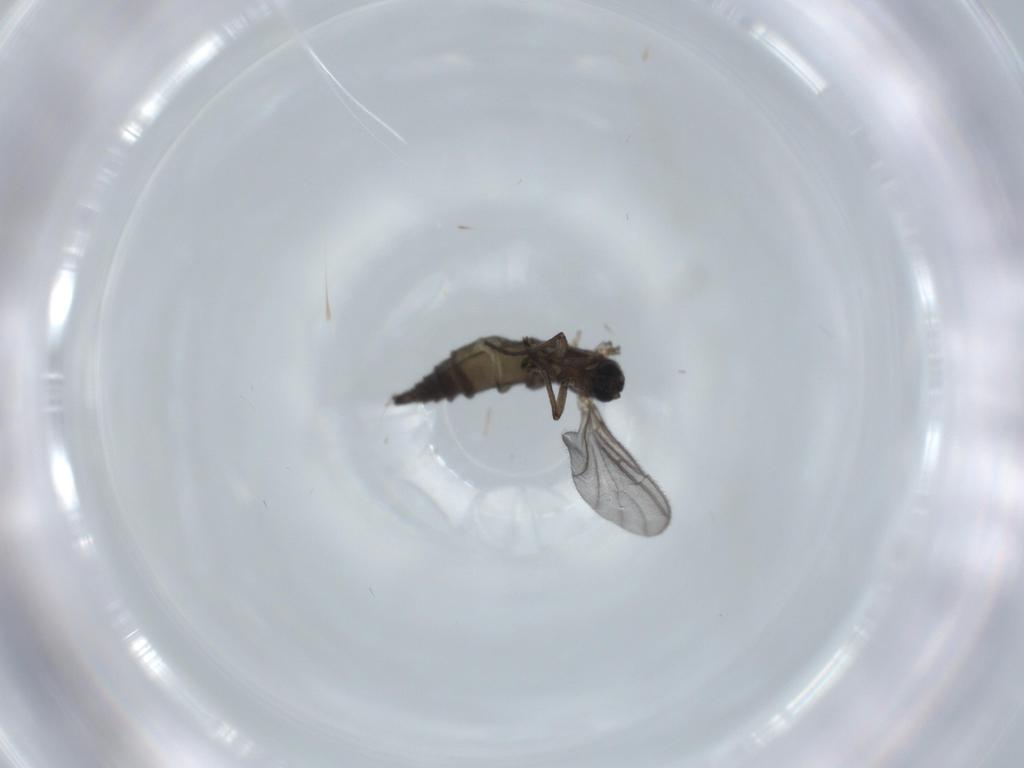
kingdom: Animalia
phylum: Arthropoda
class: Insecta
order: Diptera
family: Sciaridae
